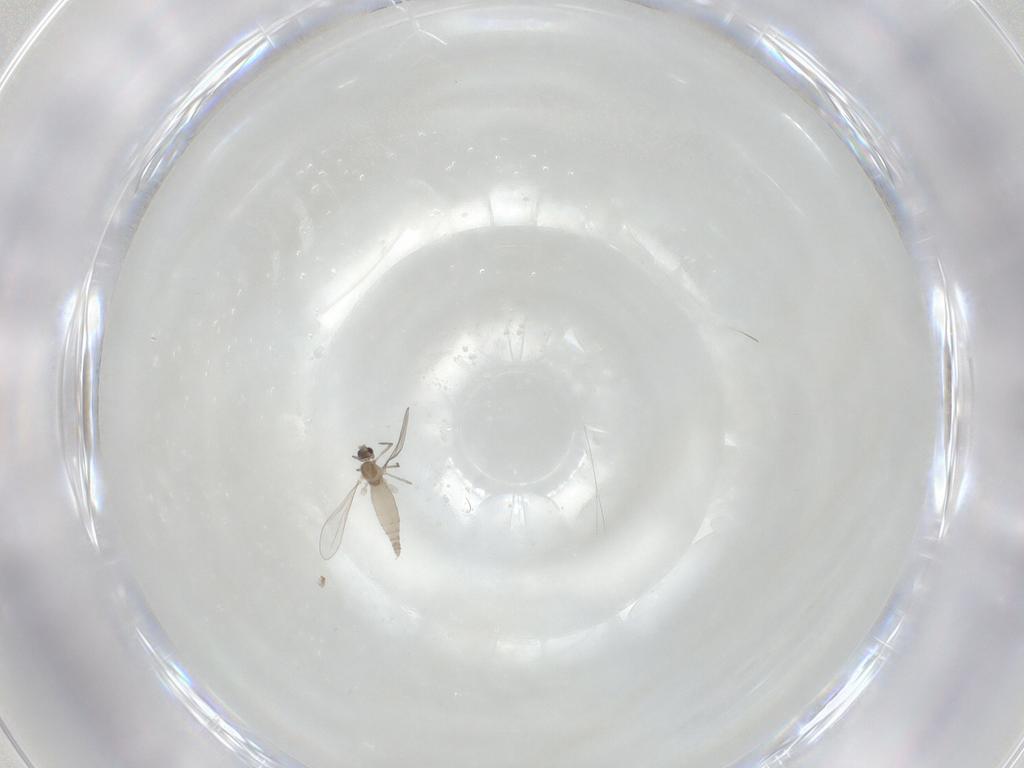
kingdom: Animalia
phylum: Arthropoda
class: Insecta
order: Diptera
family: Cecidomyiidae
